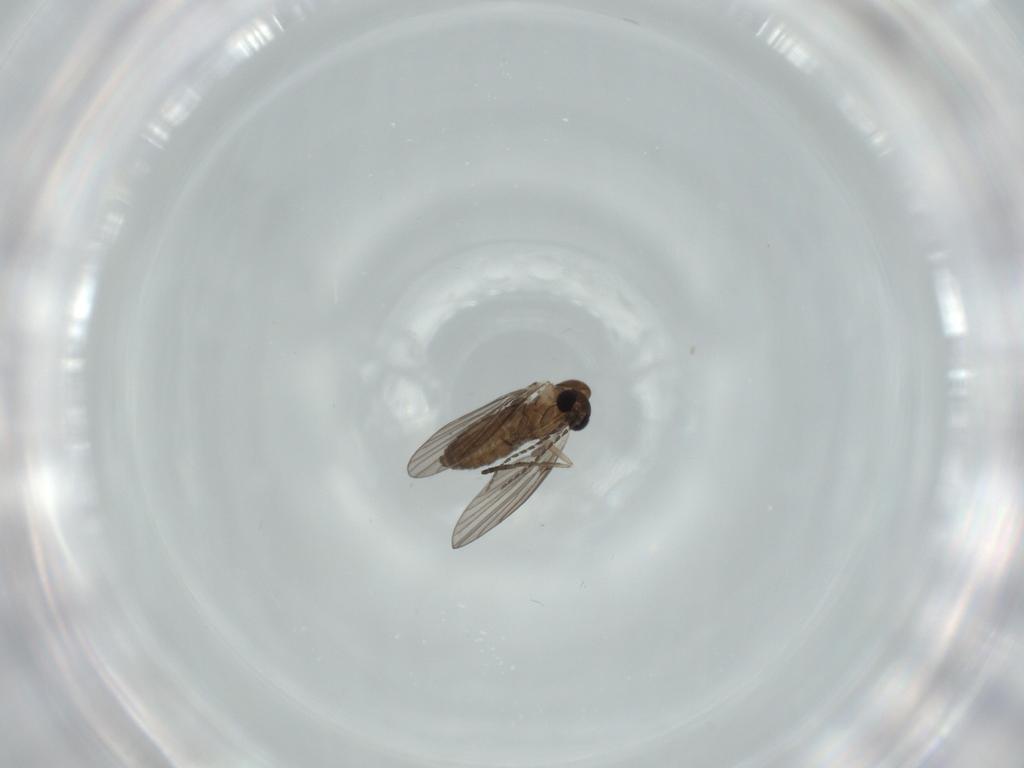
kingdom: Animalia
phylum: Arthropoda
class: Insecta
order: Diptera
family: Psychodidae
